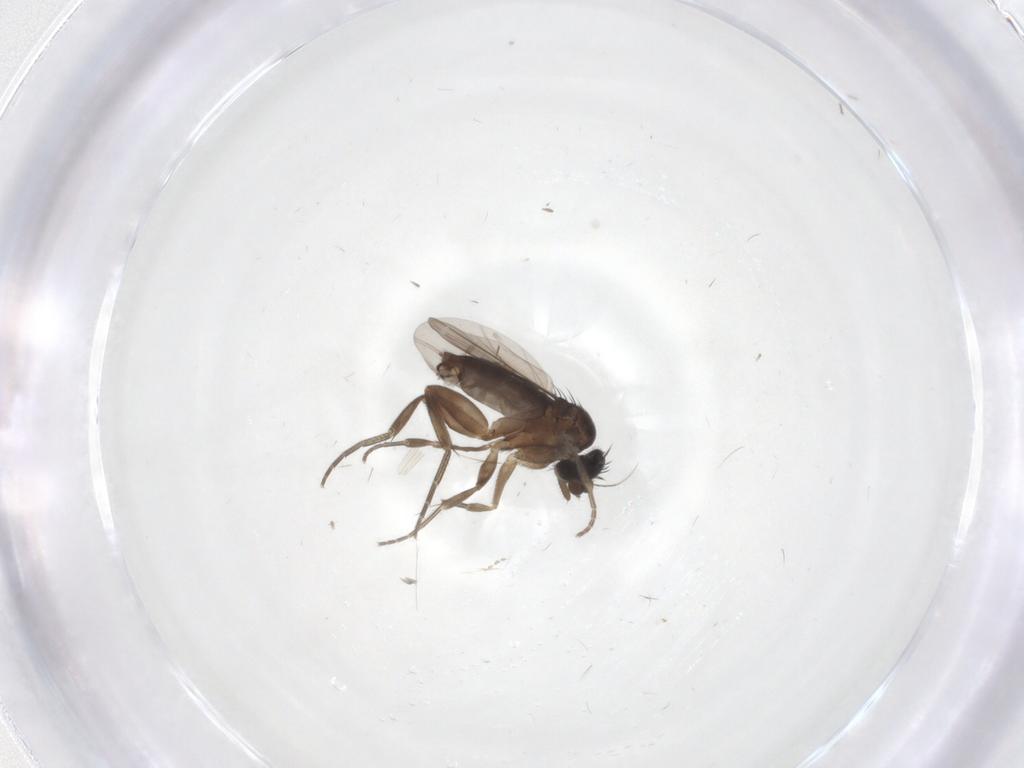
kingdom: Animalia
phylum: Arthropoda
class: Insecta
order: Diptera
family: Phoridae
